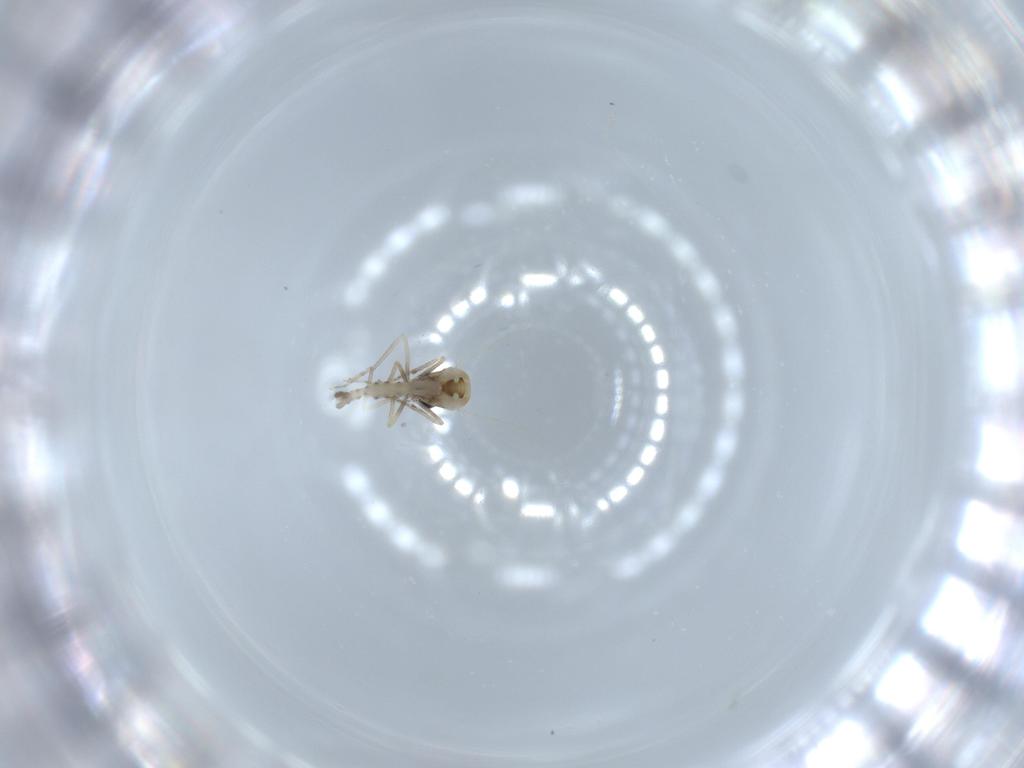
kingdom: Animalia
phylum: Arthropoda
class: Insecta
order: Diptera
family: Ceratopogonidae
